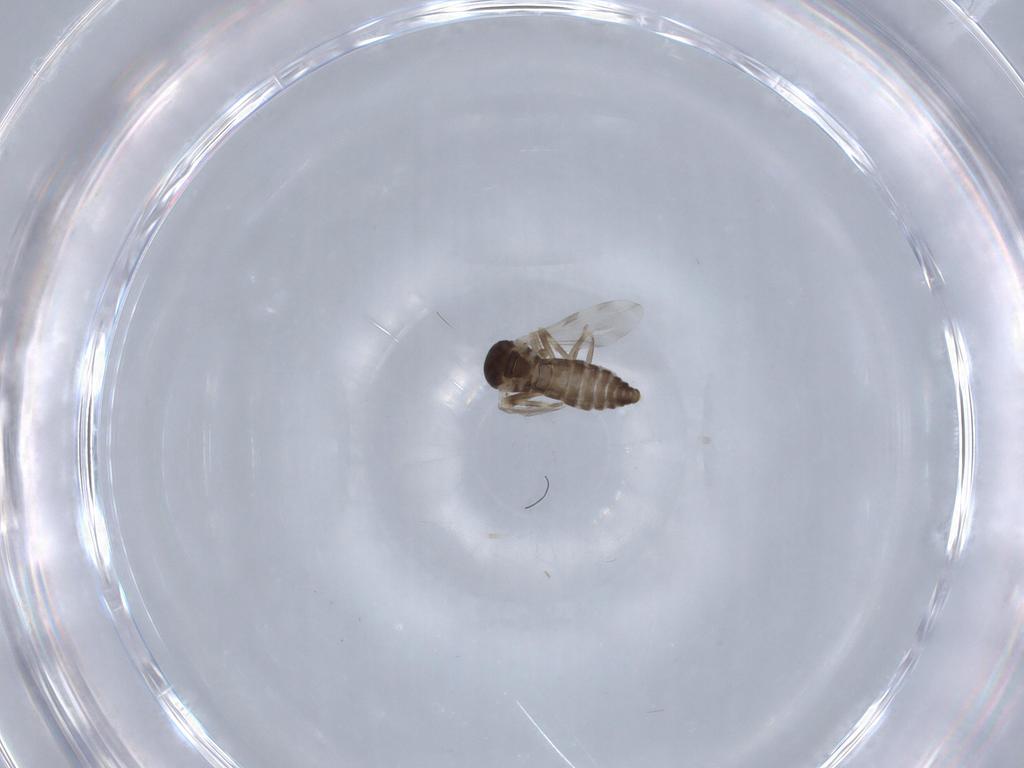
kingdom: Animalia
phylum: Arthropoda
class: Insecta
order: Diptera
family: Ceratopogonidae
